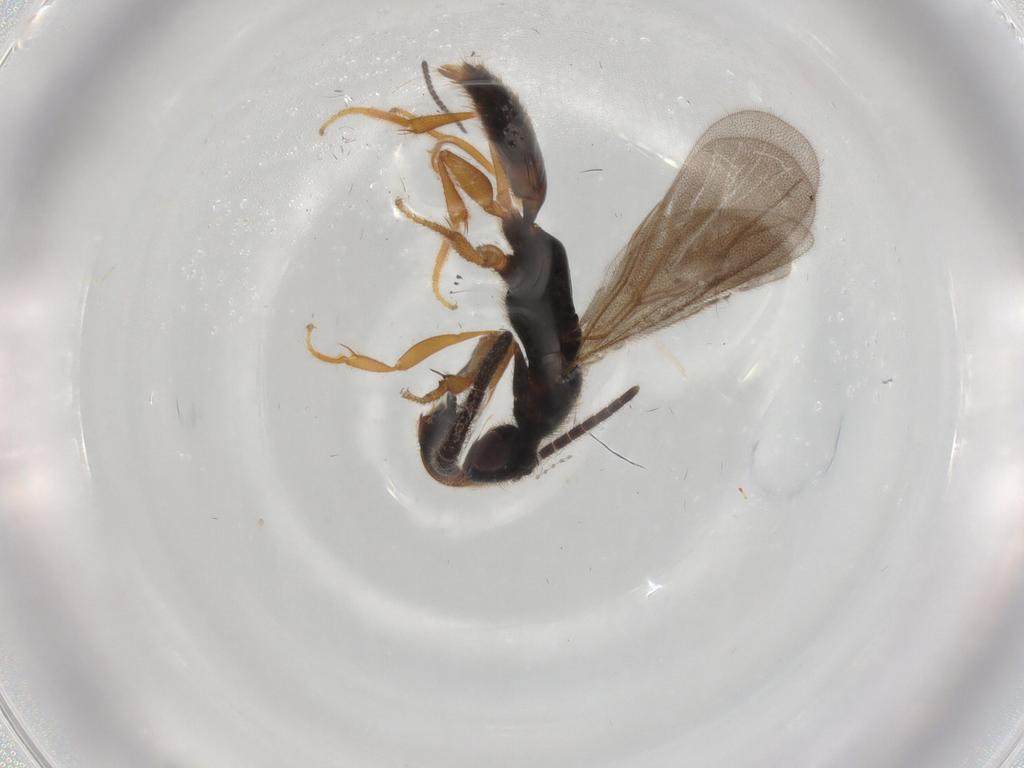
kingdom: Animalia
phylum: Arthropoda
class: Insecta
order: Hymenoptera
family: Bethylidae
